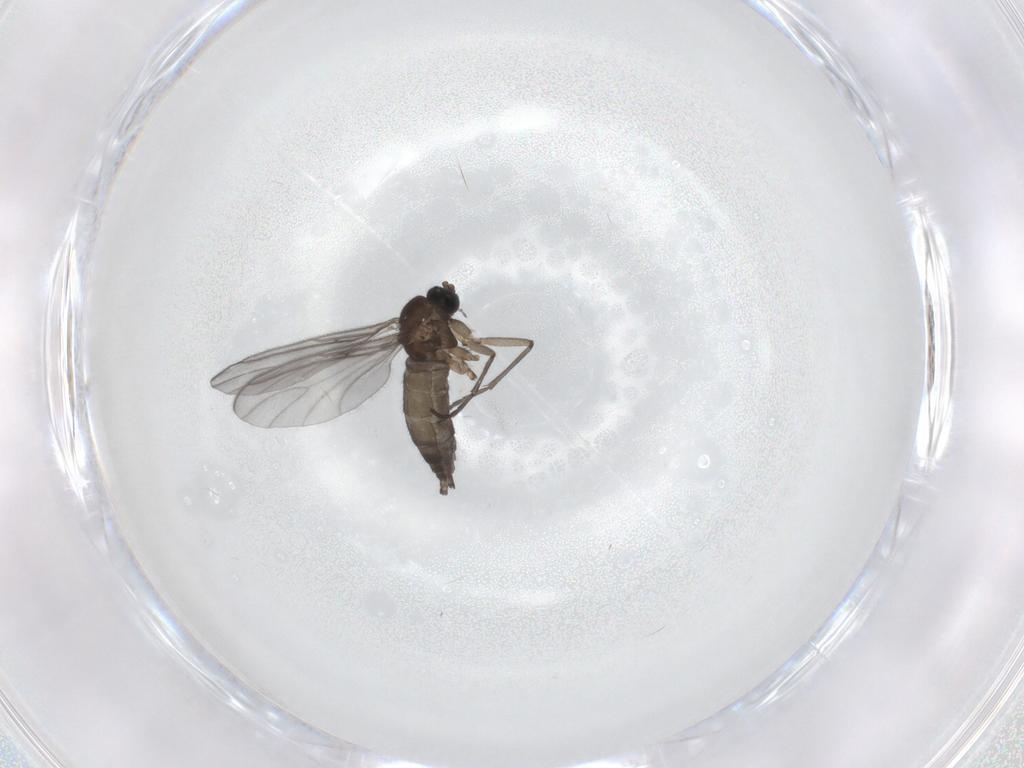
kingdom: Animalia
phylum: Arthropoda
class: Insecta
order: Diptera
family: Sciaridae
